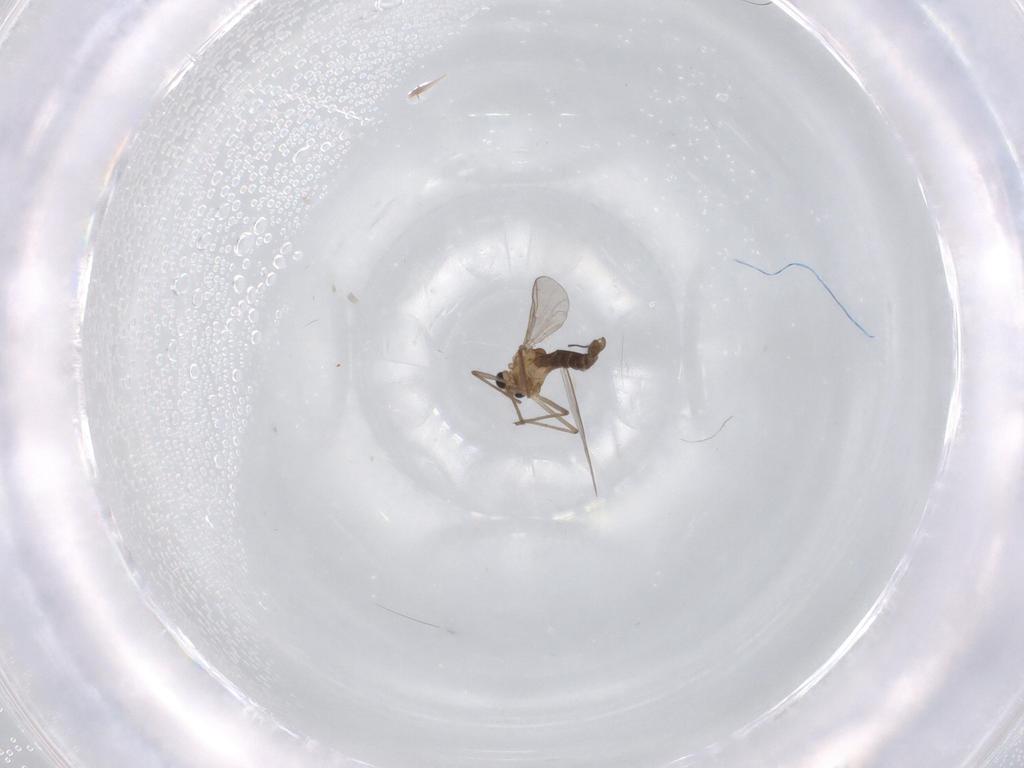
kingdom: Animalia
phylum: Arthropoda
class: Insecta
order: Diptera
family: Chironomidae
